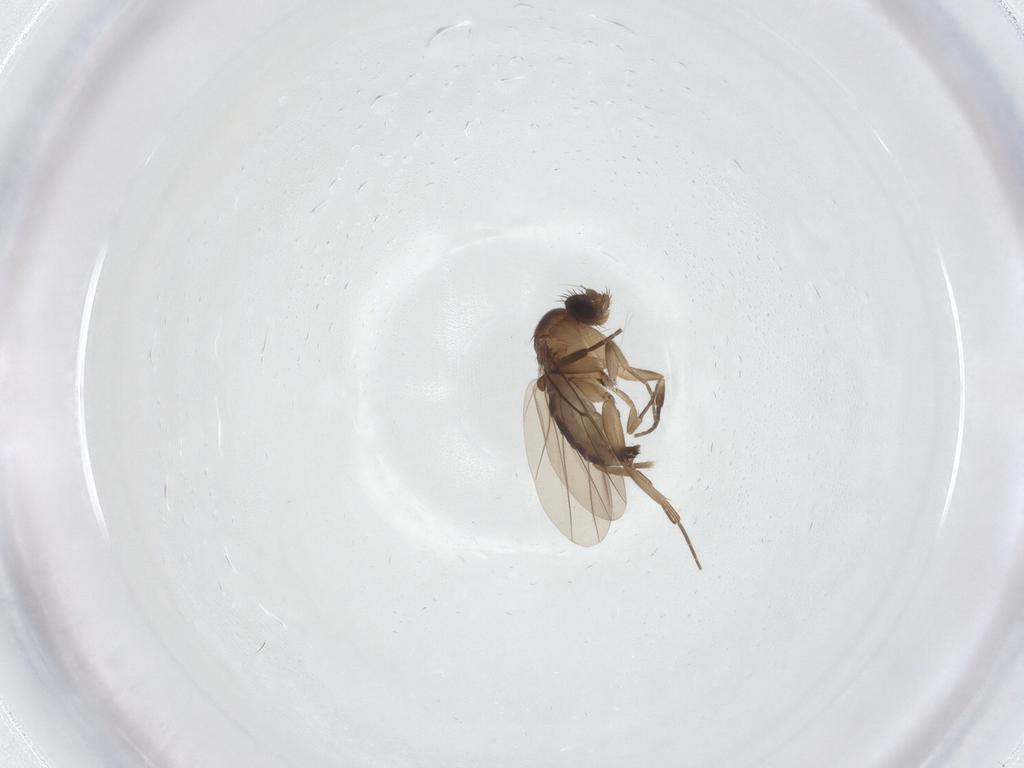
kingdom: Animalia
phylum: Arthropoda
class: Insecta
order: Diptera
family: Phoridae
